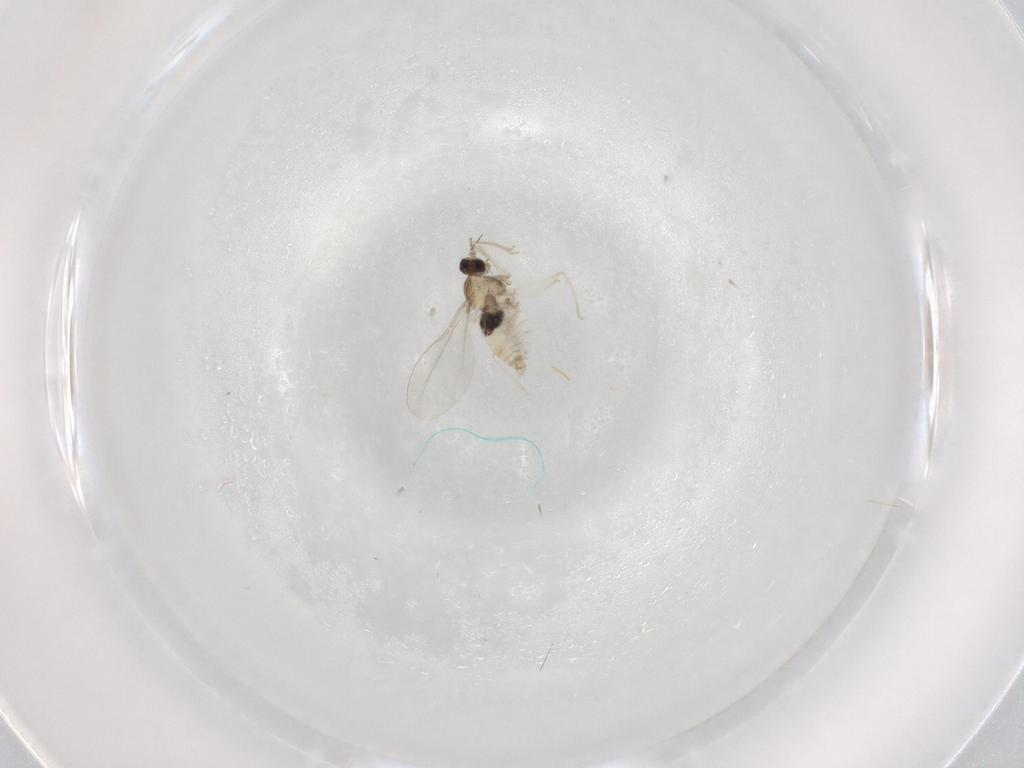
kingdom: Animalia
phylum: Arthropoda
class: Insecta
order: Diptera
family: Cecidomyiidae
